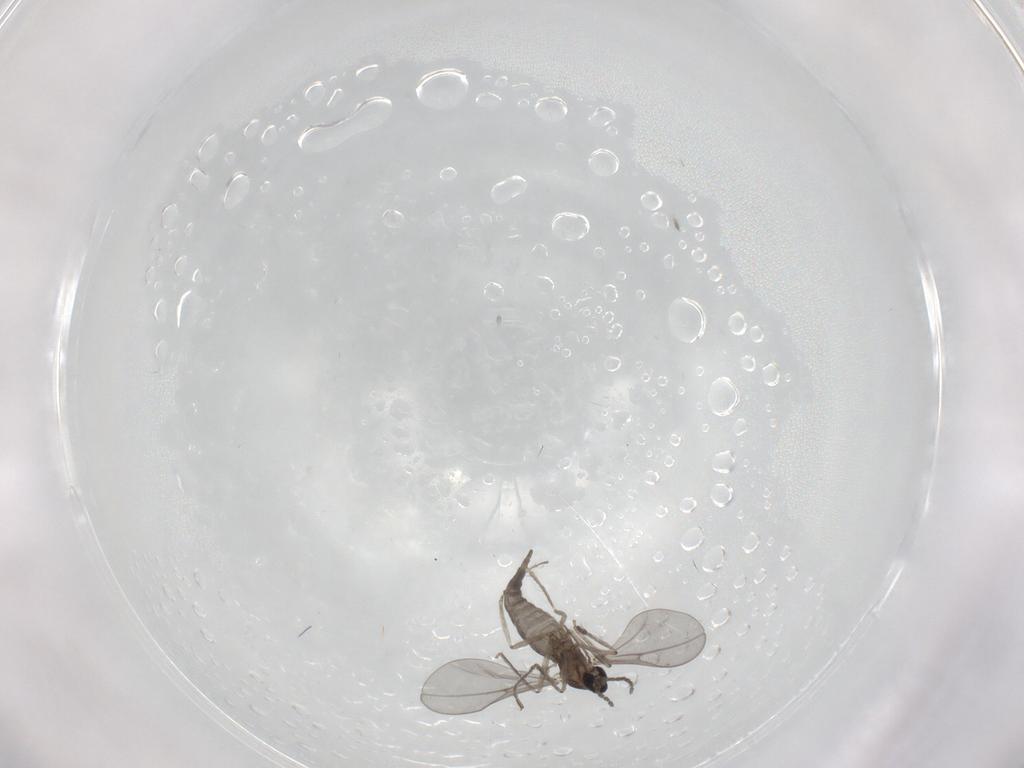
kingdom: Animalia
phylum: Arthropoda
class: Insecta
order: Diptera
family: Cecidomyiidae
